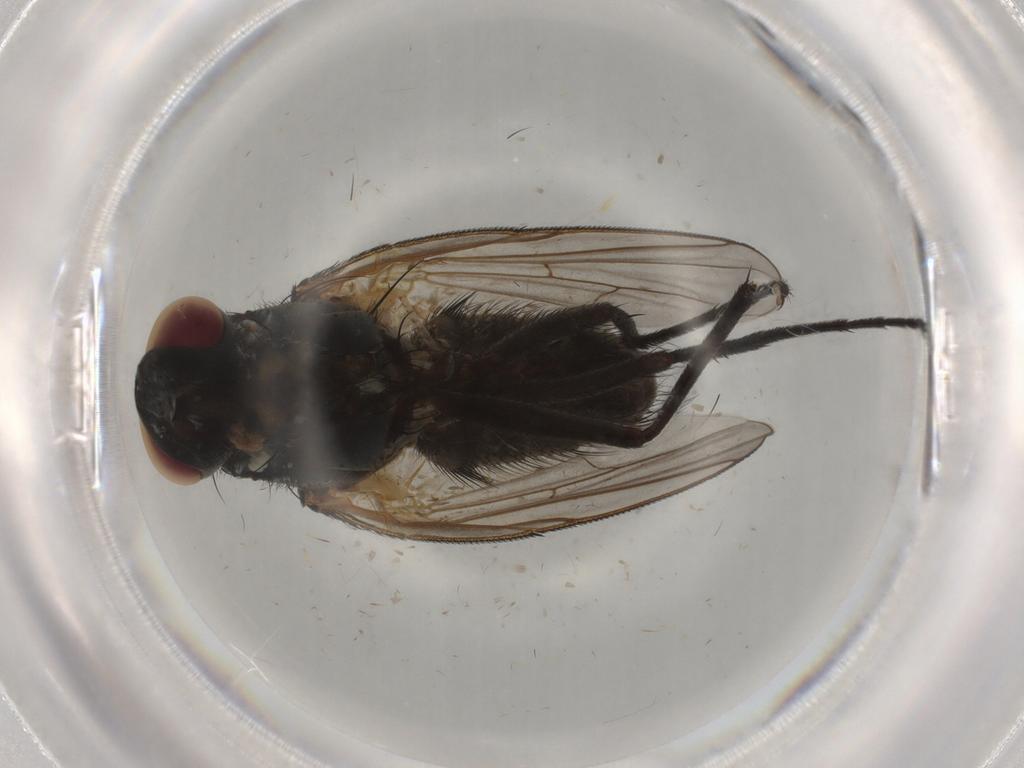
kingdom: Animalia
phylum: Arthropoda
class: Insecta
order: Diptera
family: Muscidae
